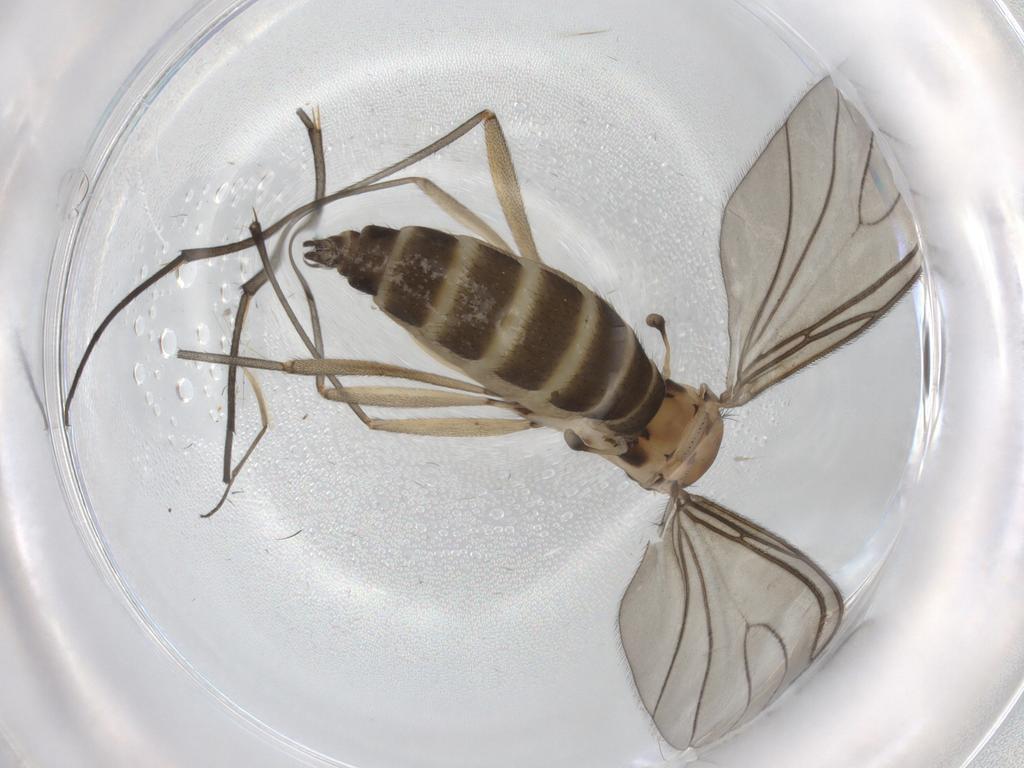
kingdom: Animalia
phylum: Arthropoda
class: Insecta
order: Diptera
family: Sciaridae
